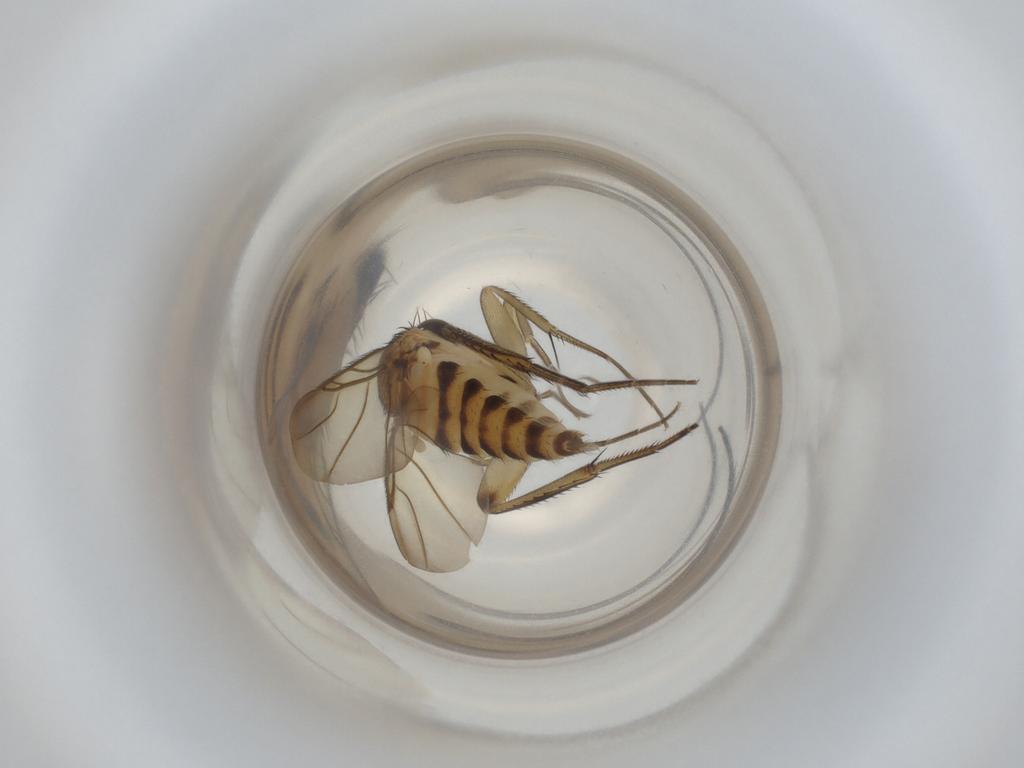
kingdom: Animalia
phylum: Arthropoda
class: Insecta
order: Diptera
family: Phoridae
